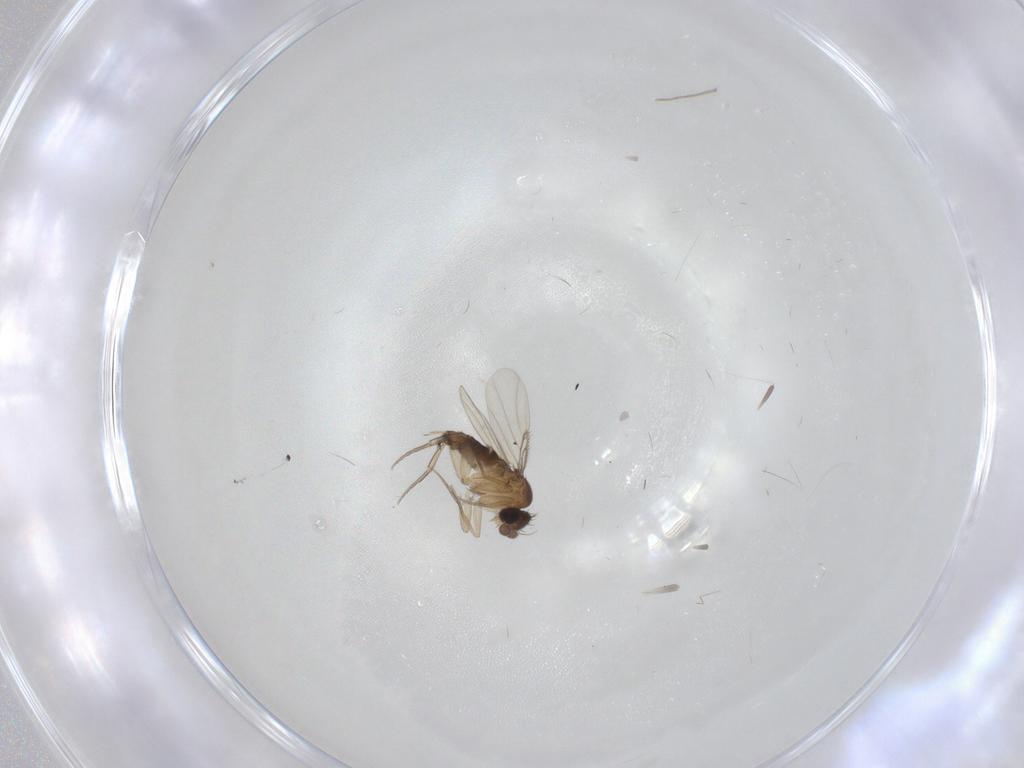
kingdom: Animalia
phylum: Arthropoda
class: Insecta
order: Diptera
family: Phoridae
